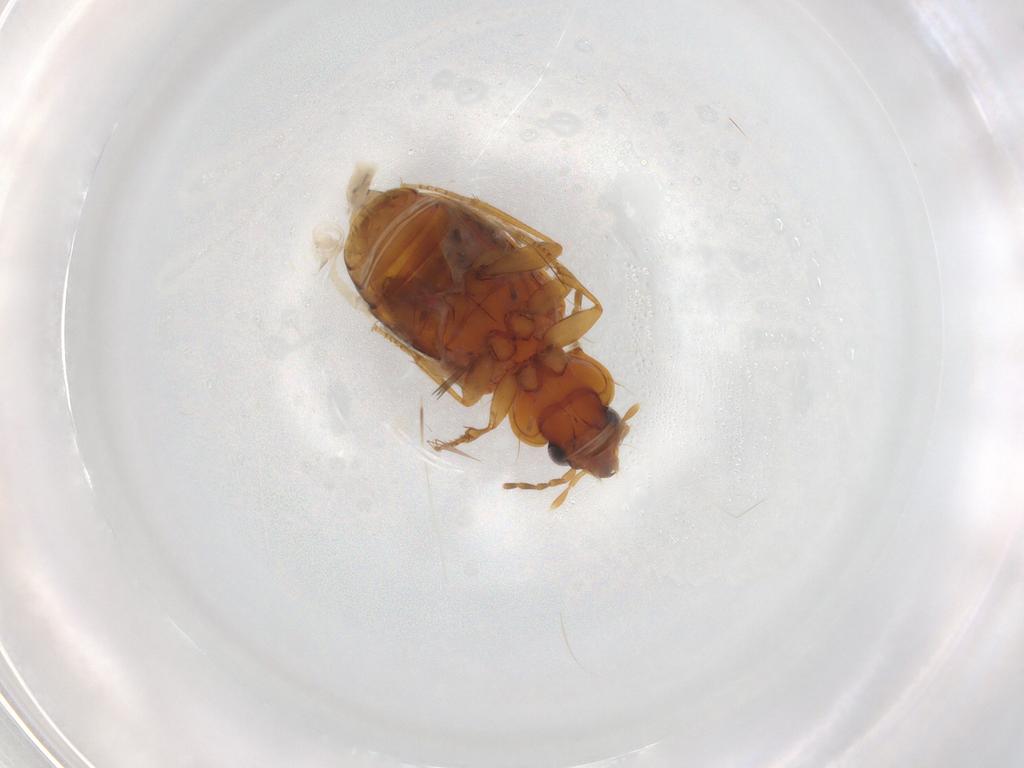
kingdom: Animalia
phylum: Arthropoda
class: Insecta
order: Coleoptera
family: Carabidae
